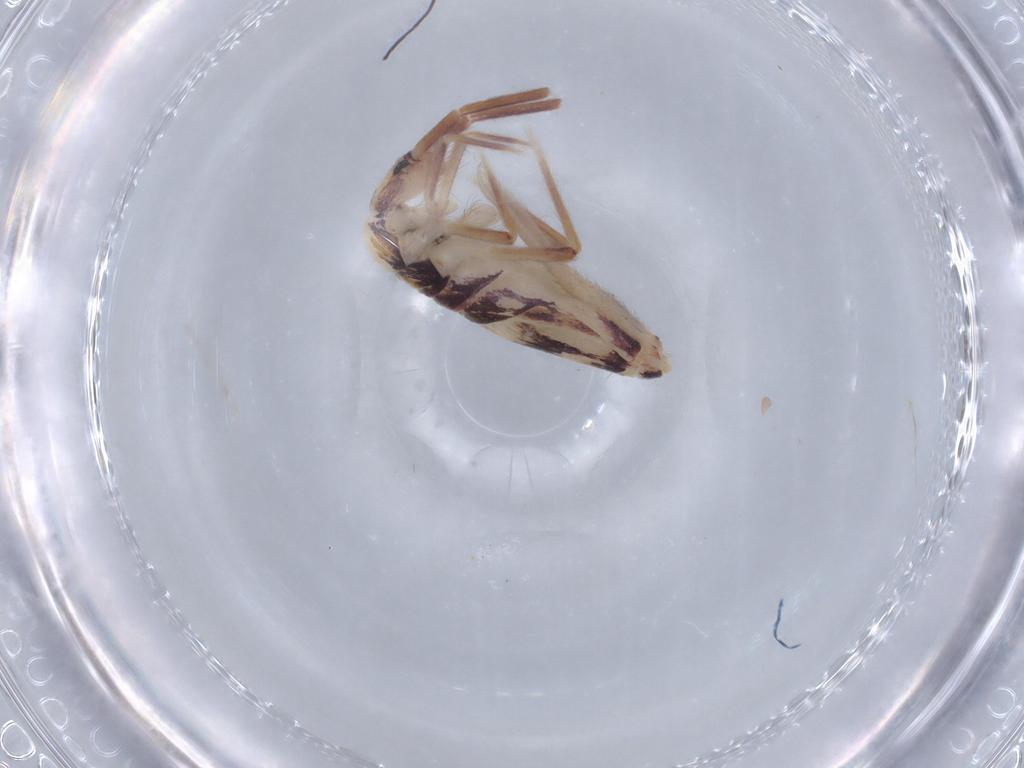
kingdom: Animalia
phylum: Arthropoda
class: Collembola
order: Entomobryomorpha
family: Entomobryidae
